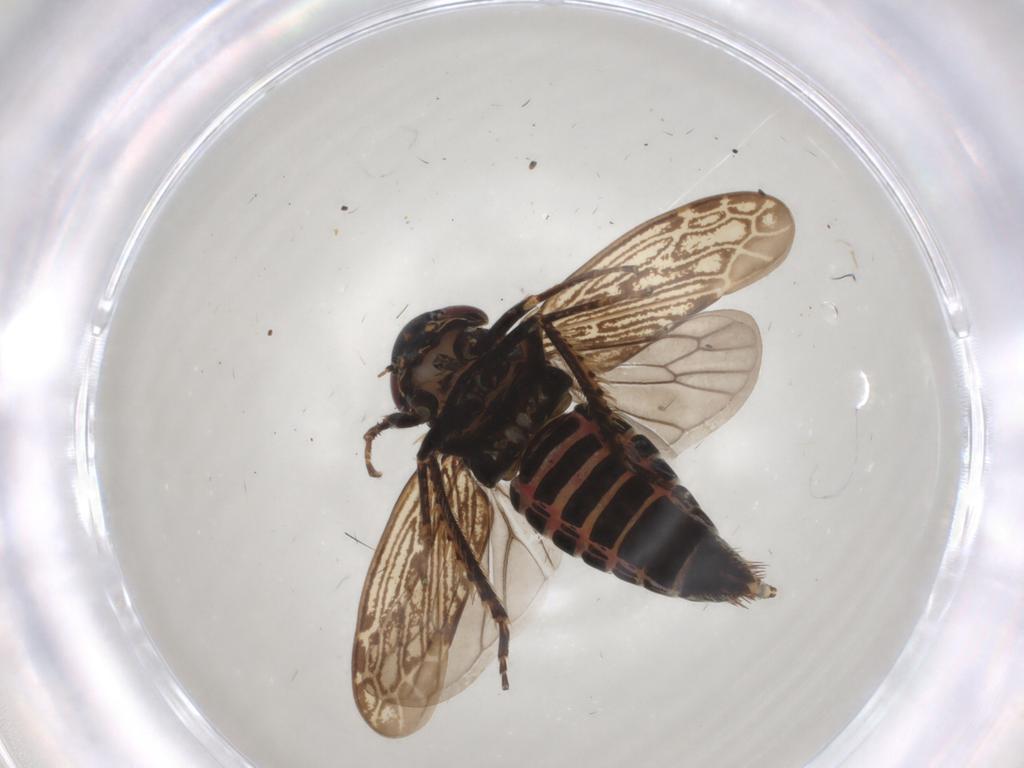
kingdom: Animalia
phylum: Arthropoda
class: Insecta
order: Hemiptera
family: Cicadellidae
